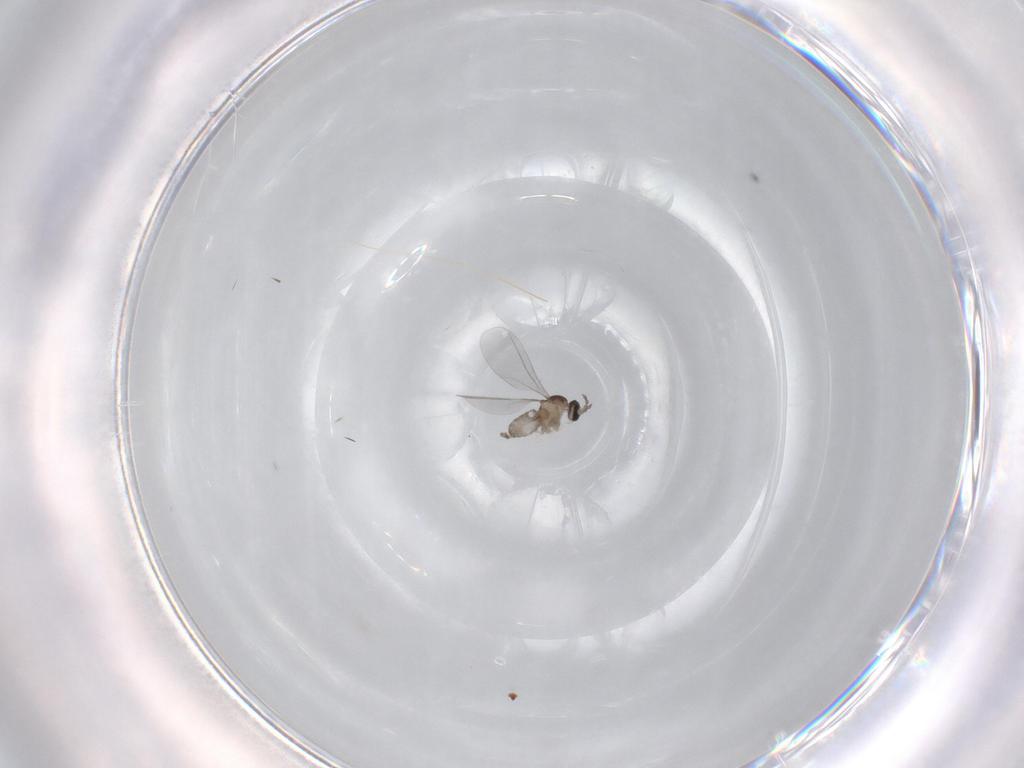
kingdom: Animalia
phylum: Arthropoda
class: Insecta
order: Diptera
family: Cecidomyiidae
